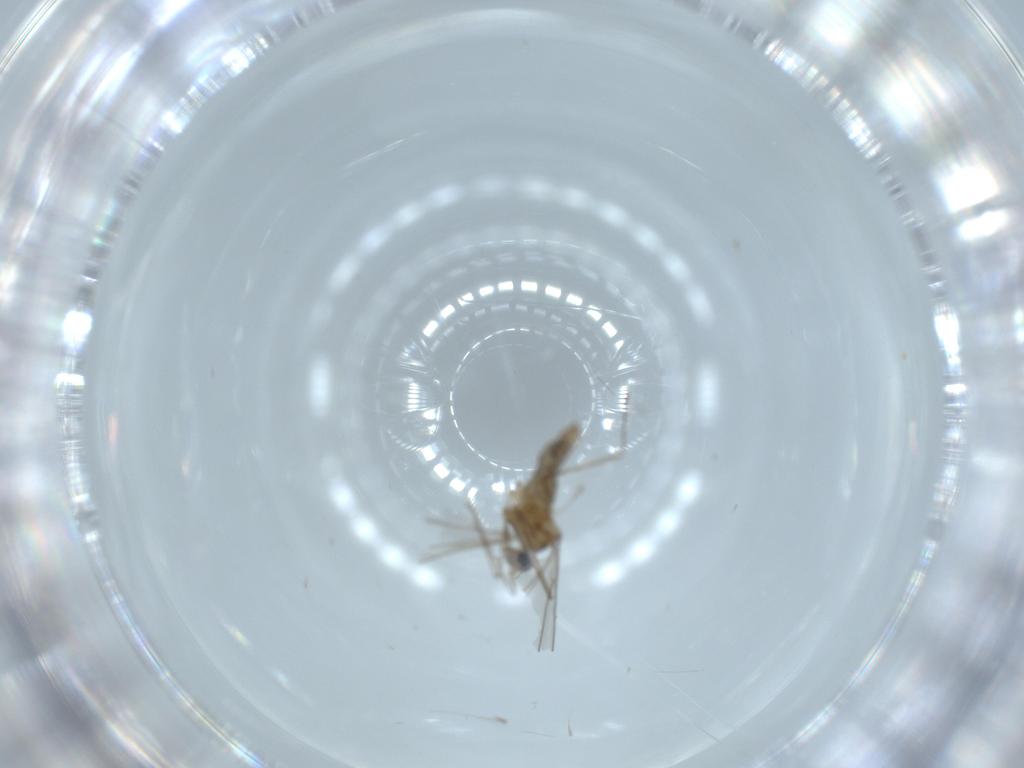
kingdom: Animalia
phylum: Arthropoda
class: Insecta
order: Diptera
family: Cecidomyiidae
